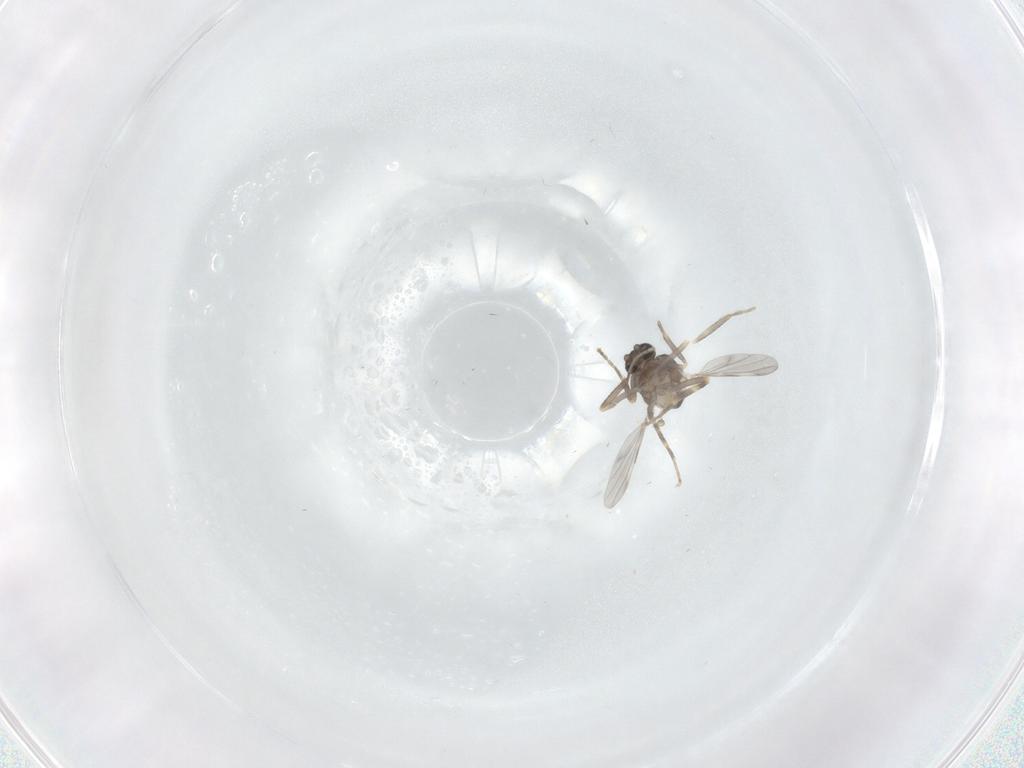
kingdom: Animalia
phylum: Arthropoda
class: Insecta
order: Diptera
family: Ceratopogonidae
